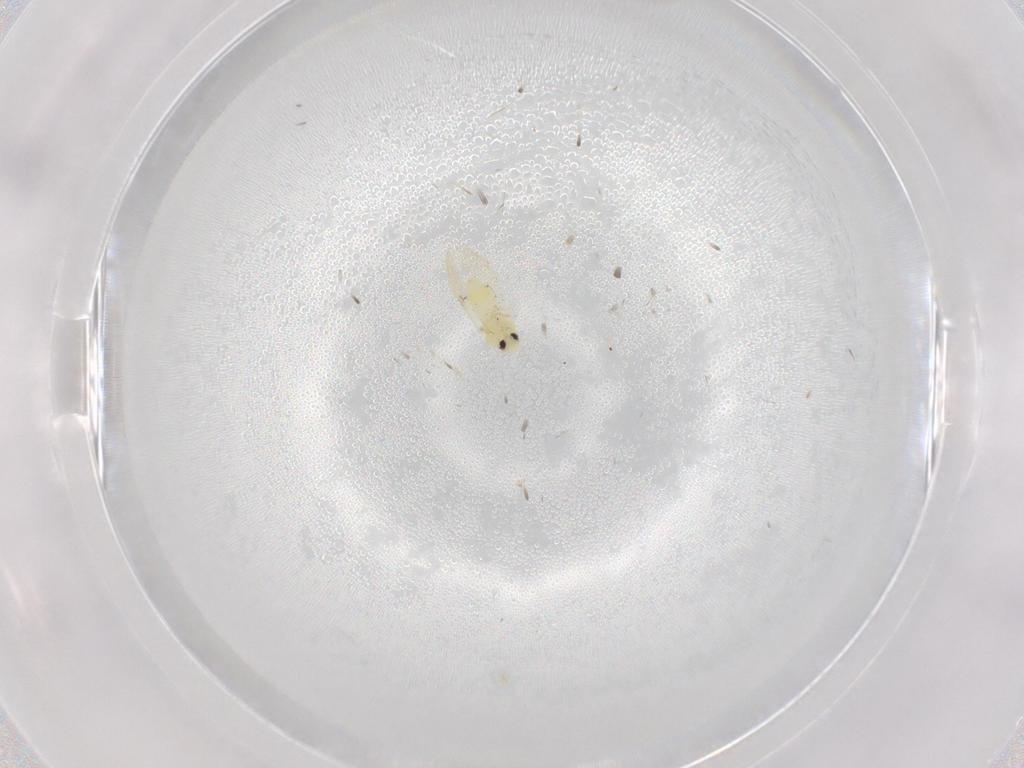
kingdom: Animalia
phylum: Arthropoda
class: Insecta
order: Hemiptera
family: Aleyrodidae
